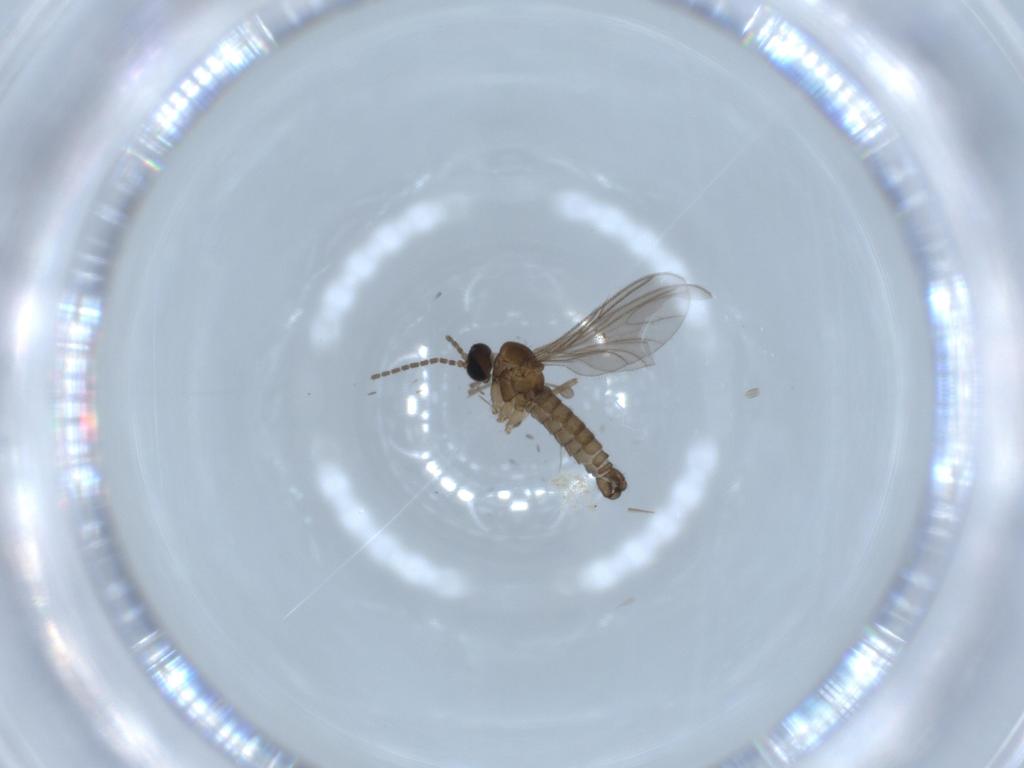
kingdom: Animalia
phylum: Arthropoda
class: Insecta
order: Diptera
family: Sciaridae
